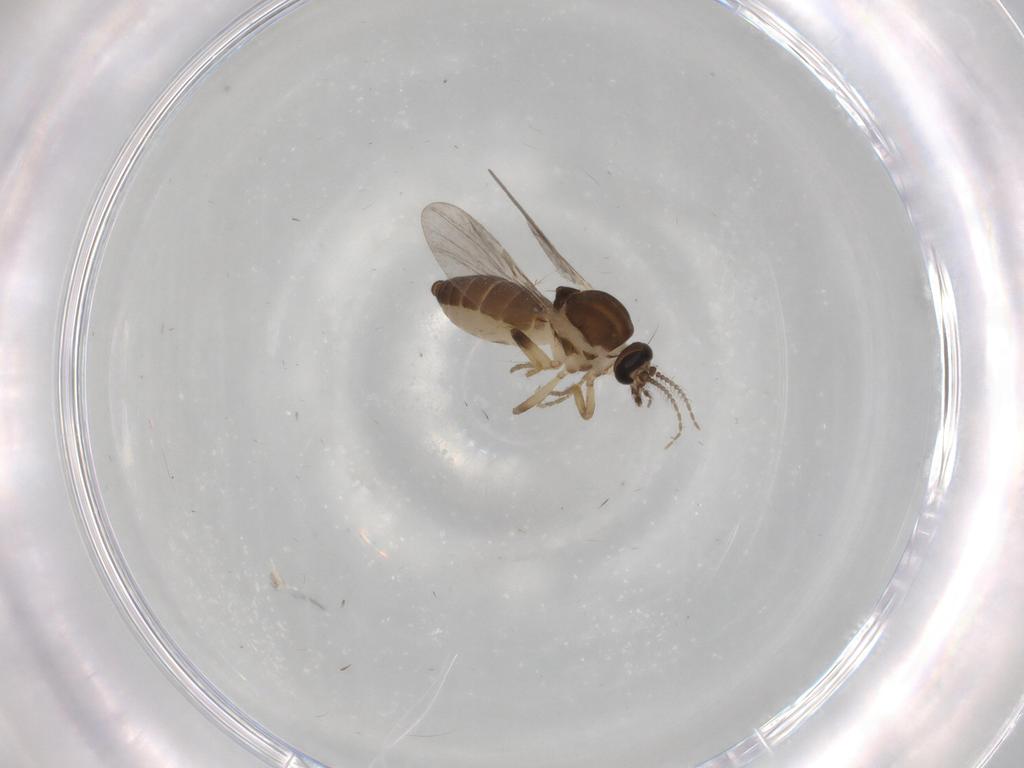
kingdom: Animalia
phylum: Arthropoda
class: Insecta
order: Diptera
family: Ceratopogonidae
